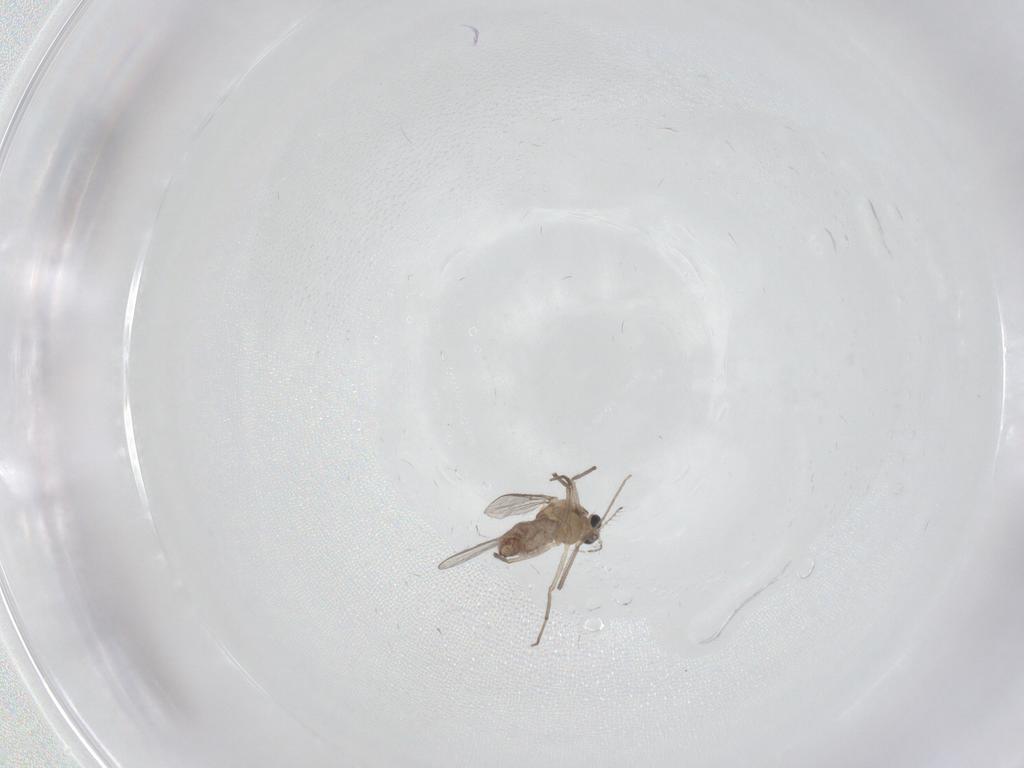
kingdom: Animalia
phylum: Arthropoda
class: Insecta
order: Diptera
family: Chironomidae
